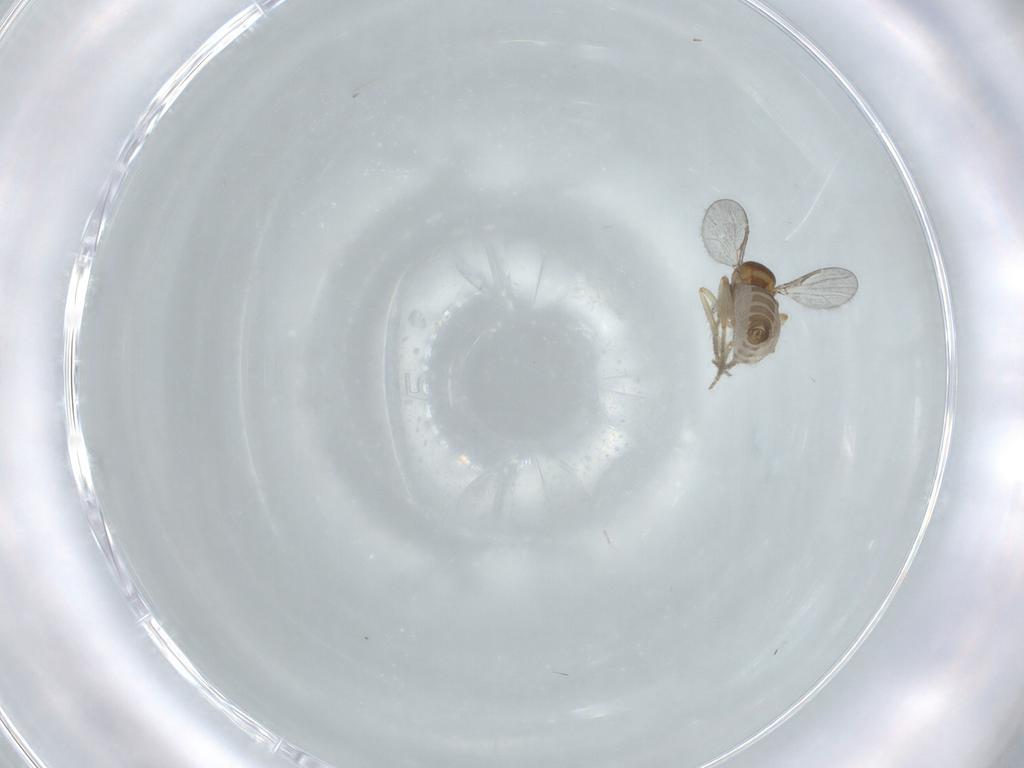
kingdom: Animalia
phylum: Arthropoda
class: Insecta
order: Diptera
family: Ceratopogonidae
